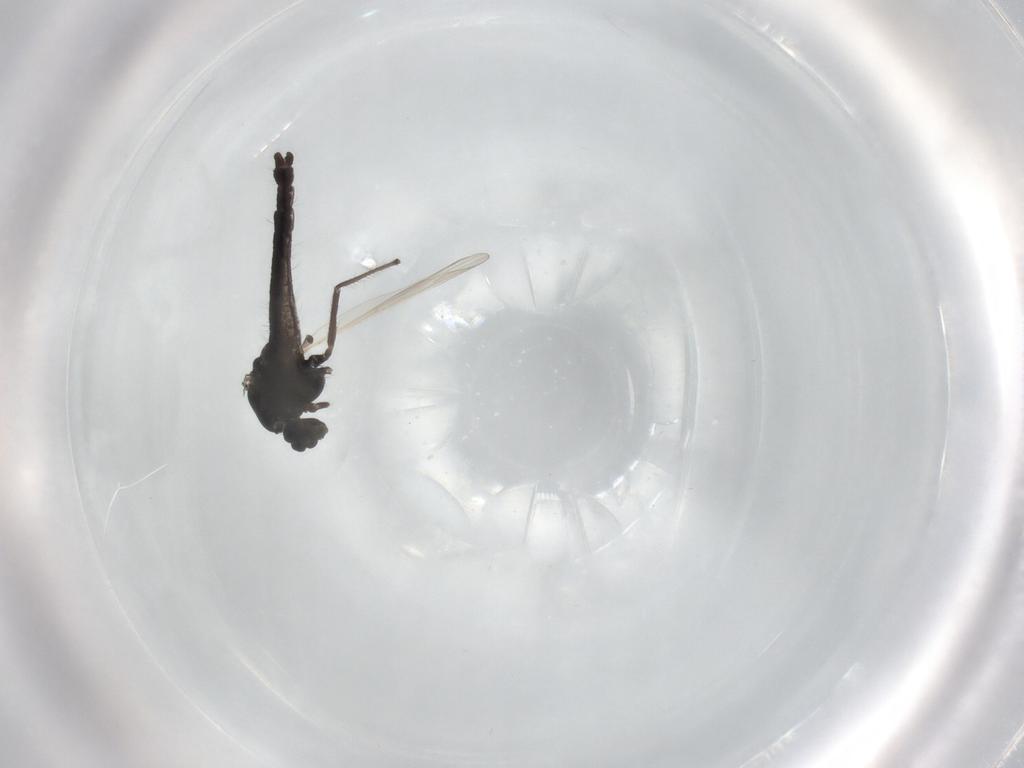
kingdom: Animalia
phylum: Arthropoda
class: Insecta
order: Diptera
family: Chironomidae
